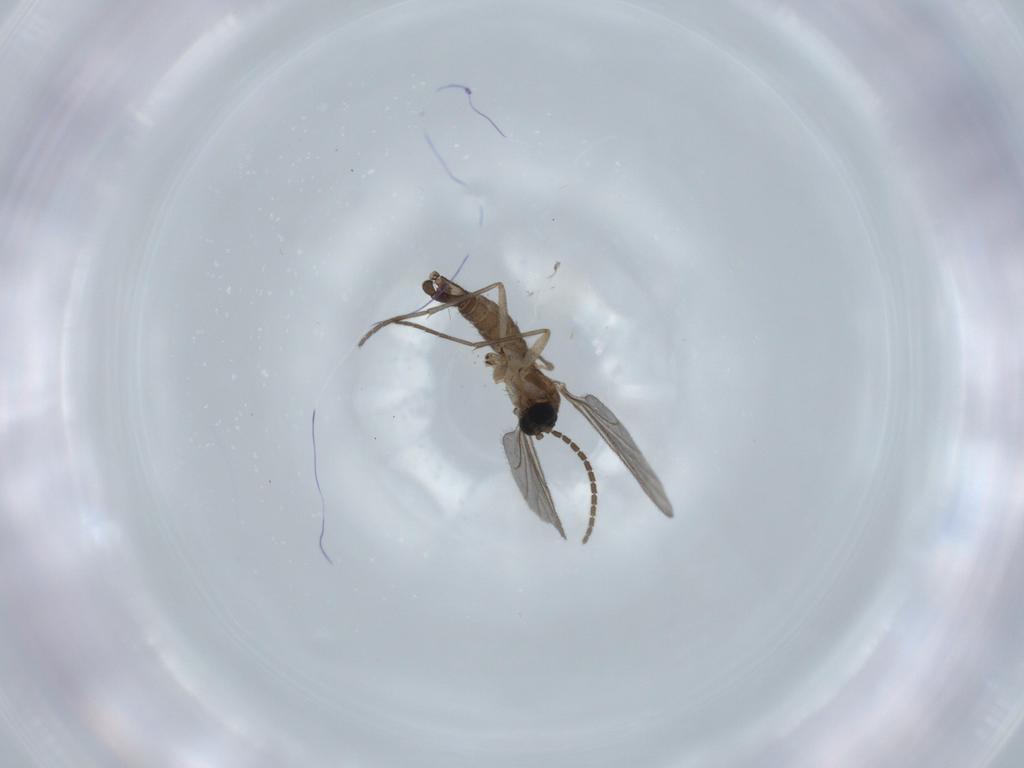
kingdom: Animalia
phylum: Arthropoda
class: Insecta
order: Diptera
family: Sciaridae
